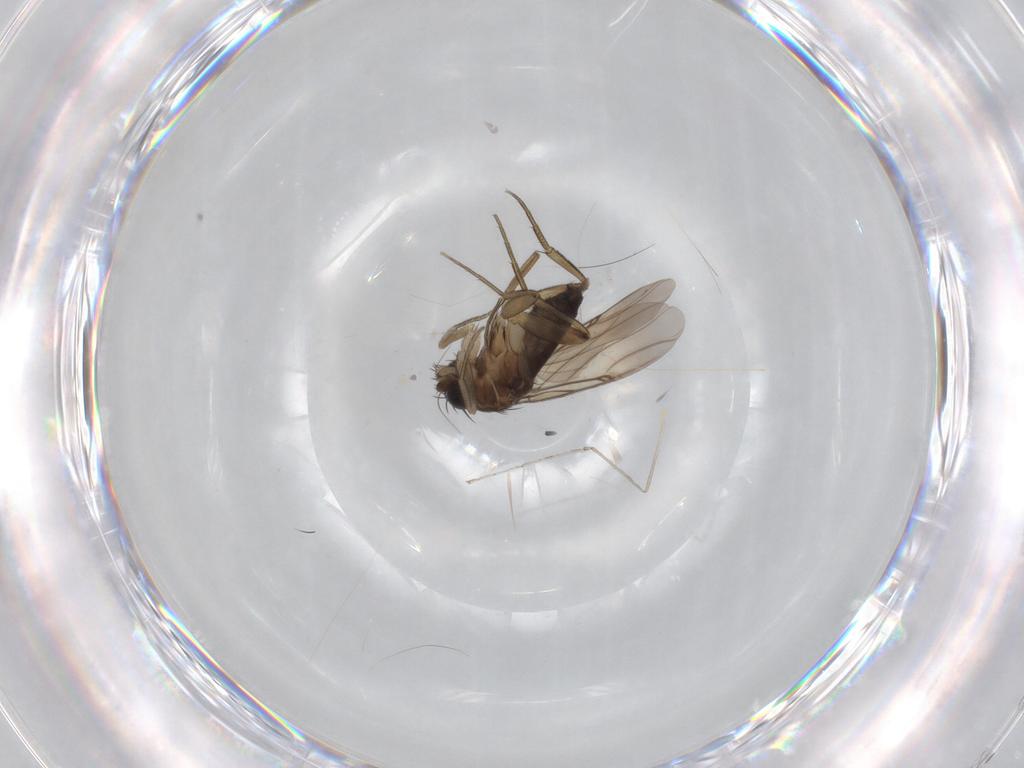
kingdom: Animalia
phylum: Arthropoda
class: Insecta
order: Diptera
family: Phoridae
